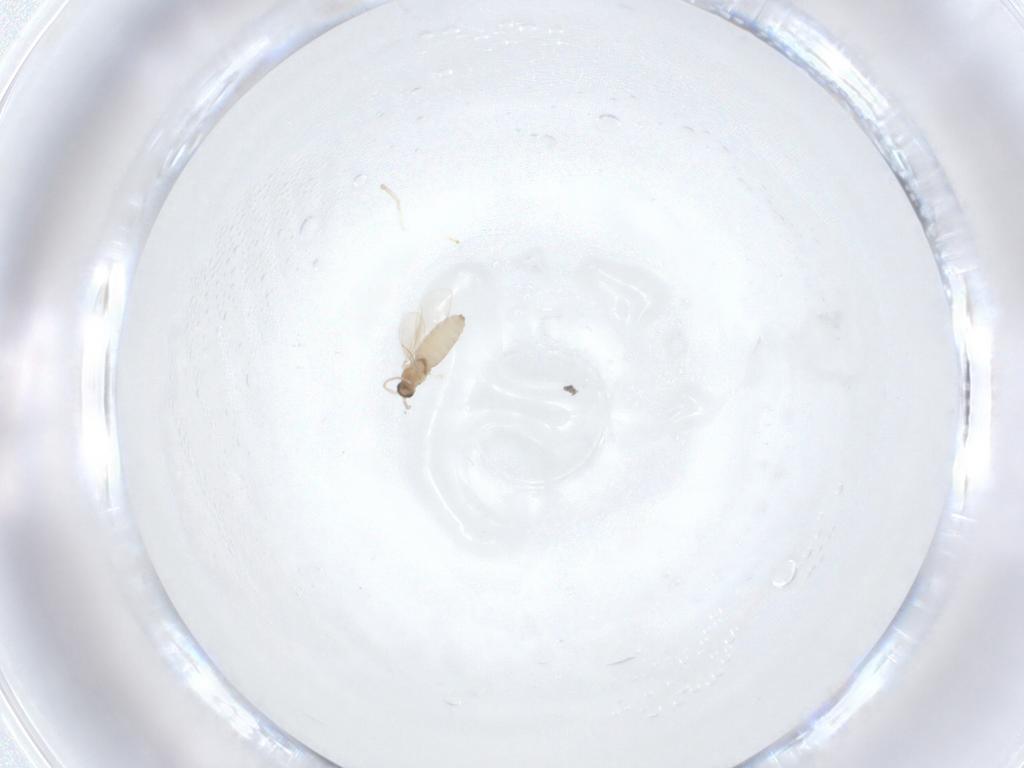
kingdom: Animalia
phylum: Arthropoda
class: Insecta
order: Diptera
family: Cecidomyiidae
